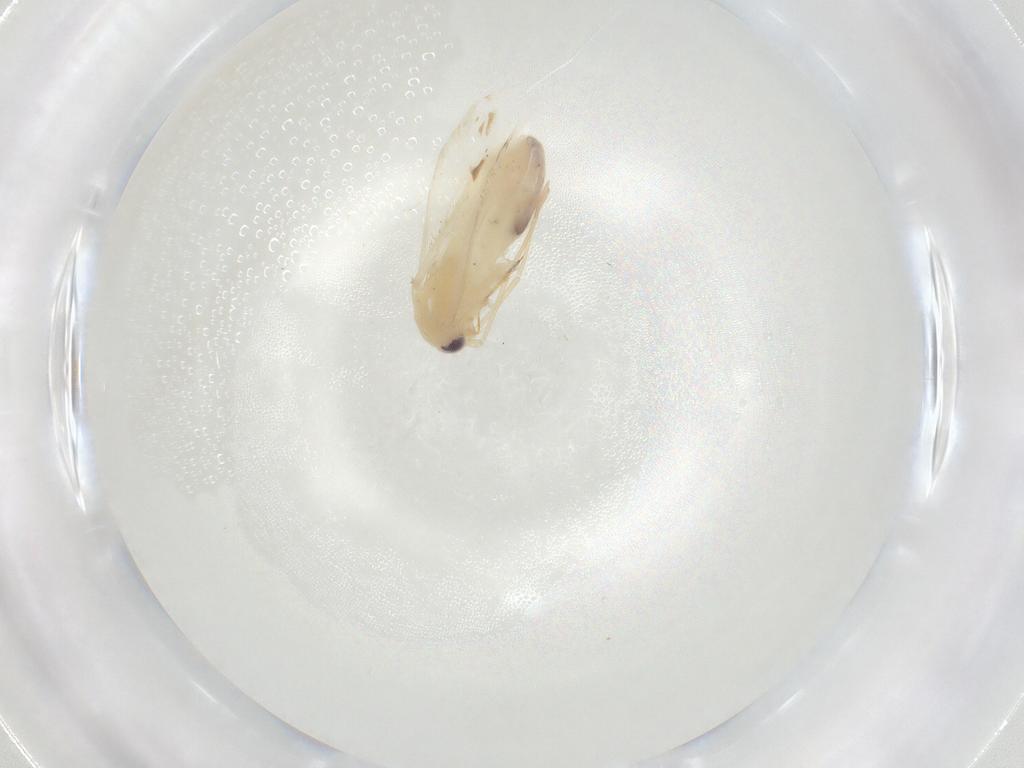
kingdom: Animalia
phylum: Arthropoda
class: Insecta
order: Hemiptera
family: Miridae
